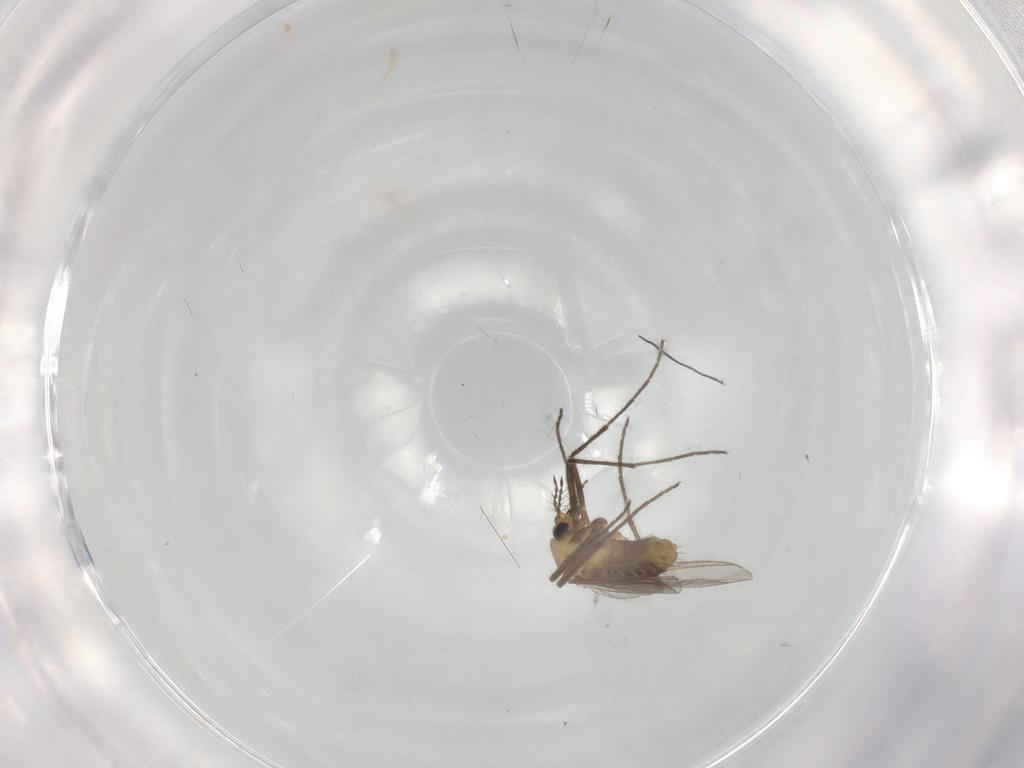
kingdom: Animalia
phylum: Arthropoda
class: Insecta
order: Diptera
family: Chironomidae
